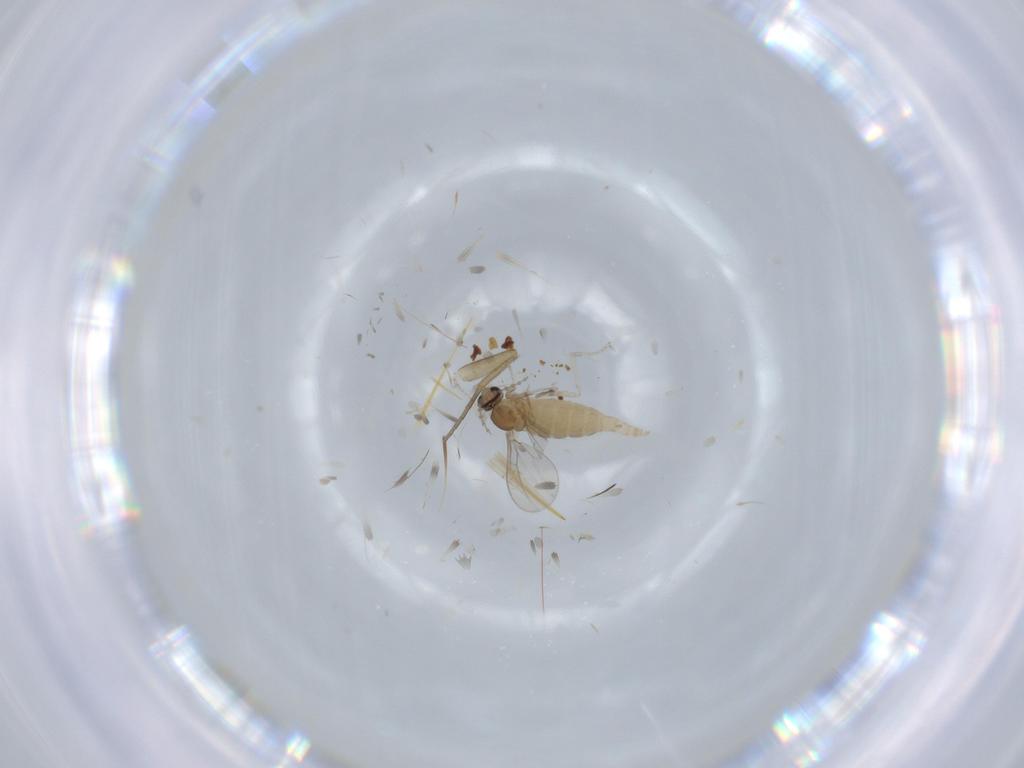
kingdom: Animalia
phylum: Arthropoda
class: Insecta
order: Diptera
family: Cecidomyiidae
